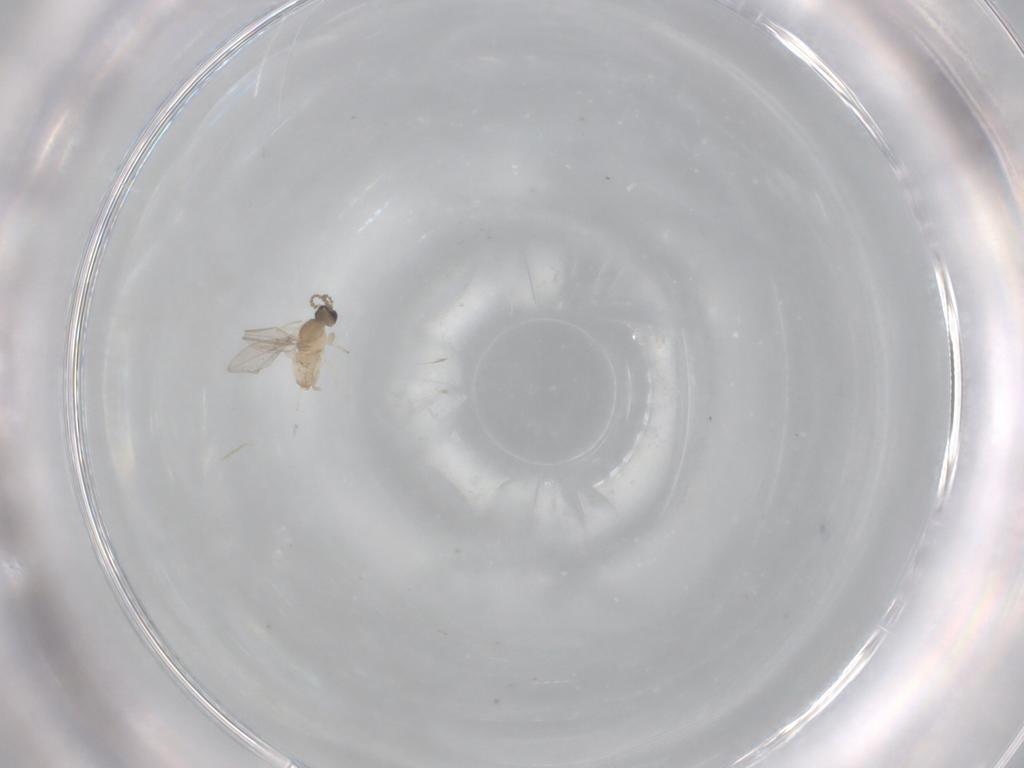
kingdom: Animalia
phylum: Arthropoda
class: Insecta
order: Diptera
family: Cecidomyiidae
